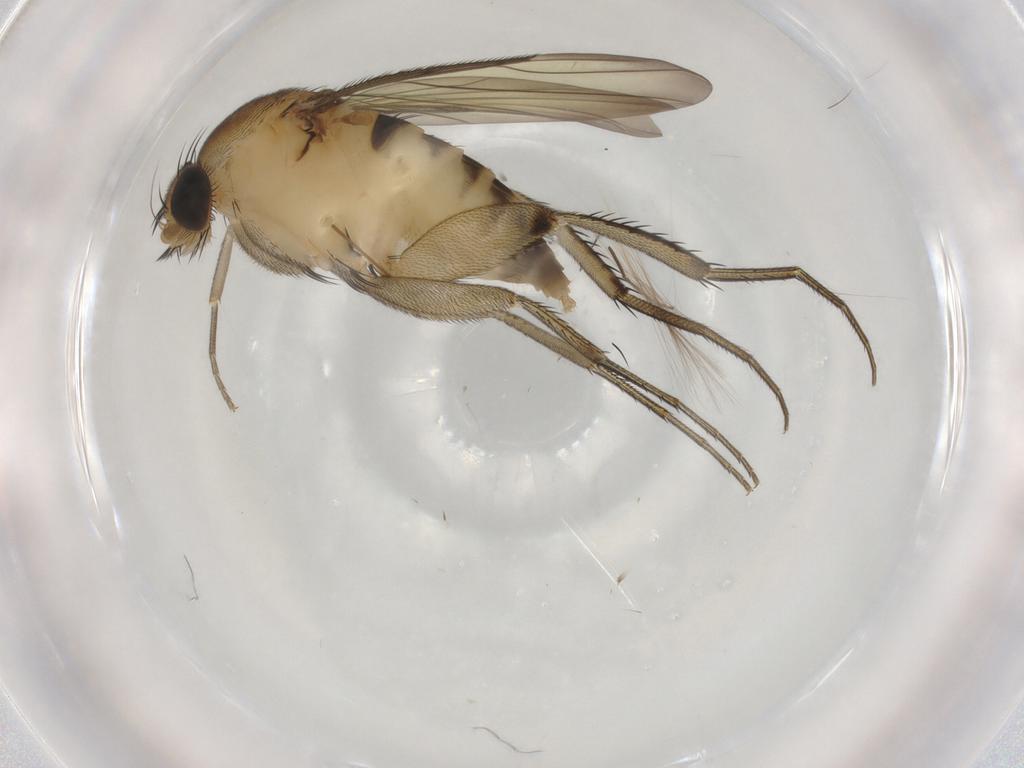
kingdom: Animalia
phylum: Arthropoda
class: Insecta
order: Diptera
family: Phoridae
